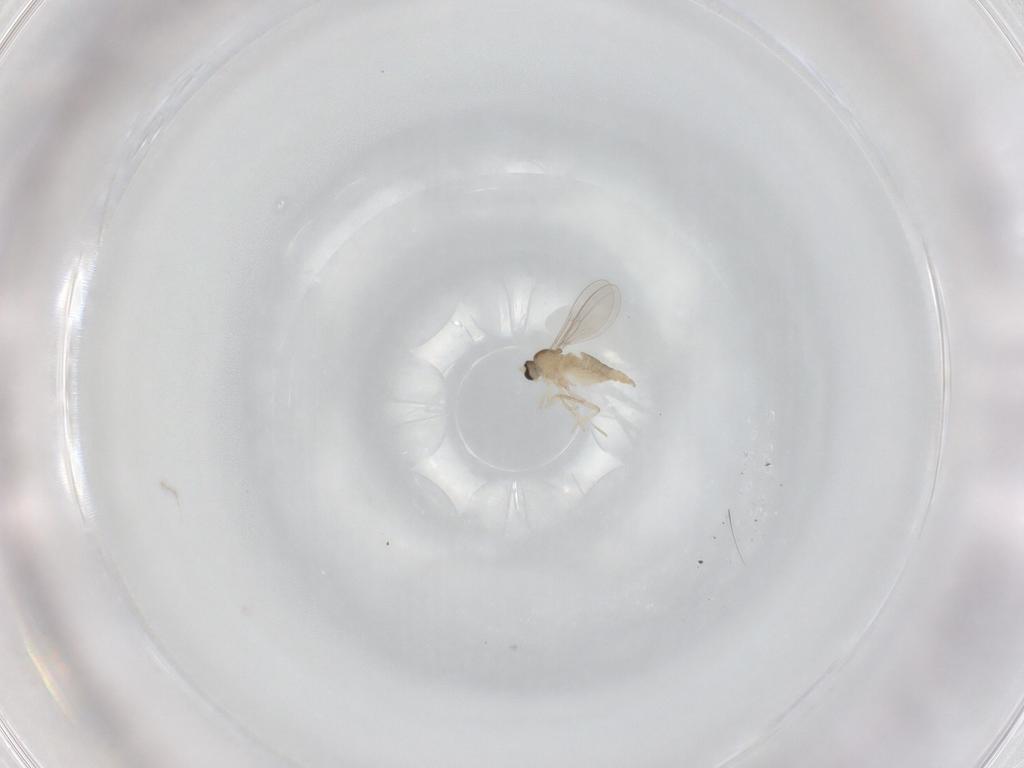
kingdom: Animalia
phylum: Arthropoda
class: Insecta
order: Diptera
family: Cecidomyiidae
